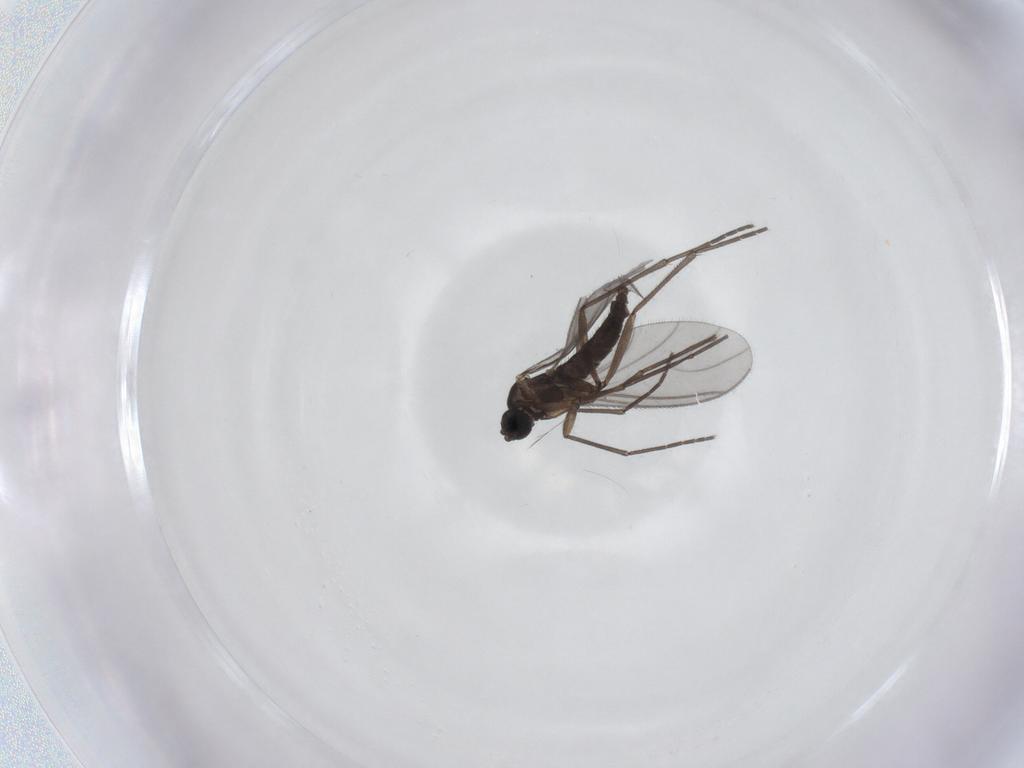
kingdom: Animalia
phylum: Arthropoda
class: Insecta
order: Diptera
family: Sciaridae
